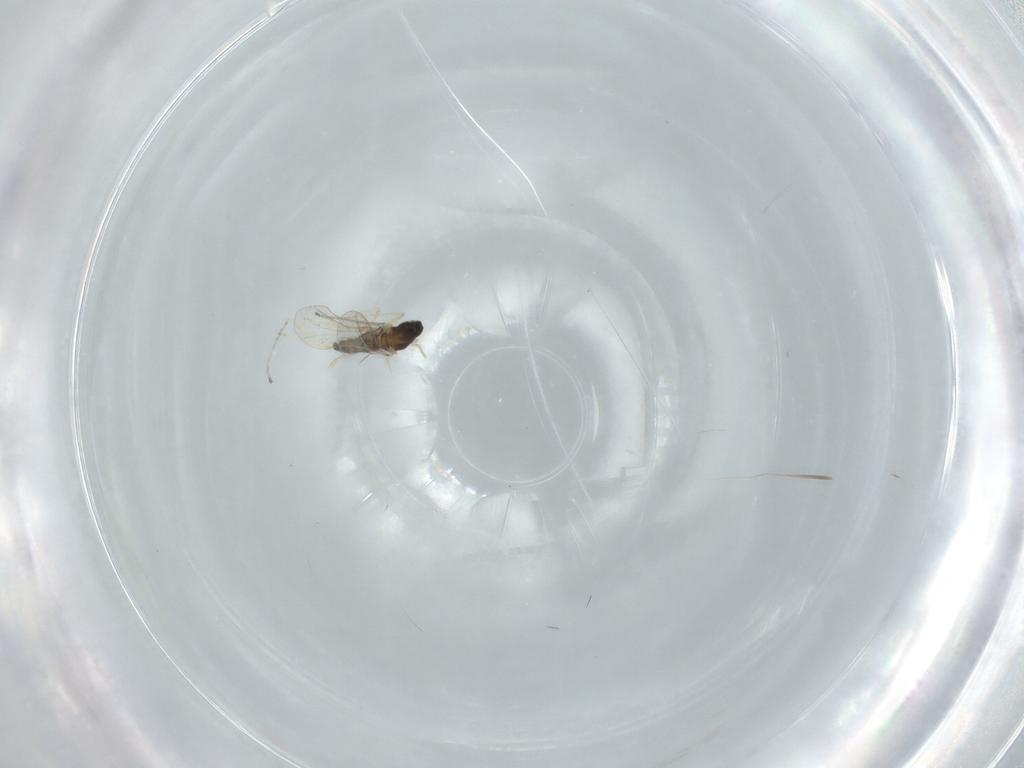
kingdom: Animalia
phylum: Arthropoda
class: Insecta
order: Diptera
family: Cecidomyiidae
